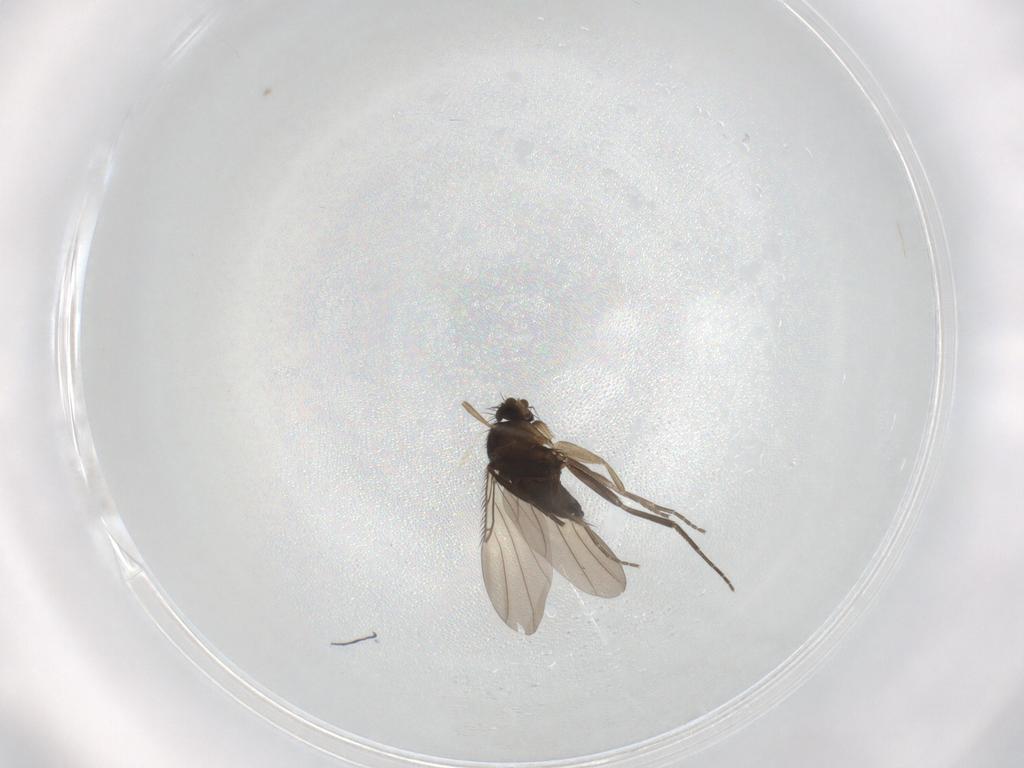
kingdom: Animalia
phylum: Arthropoda
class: Insecta
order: Diptera
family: Phoridae
